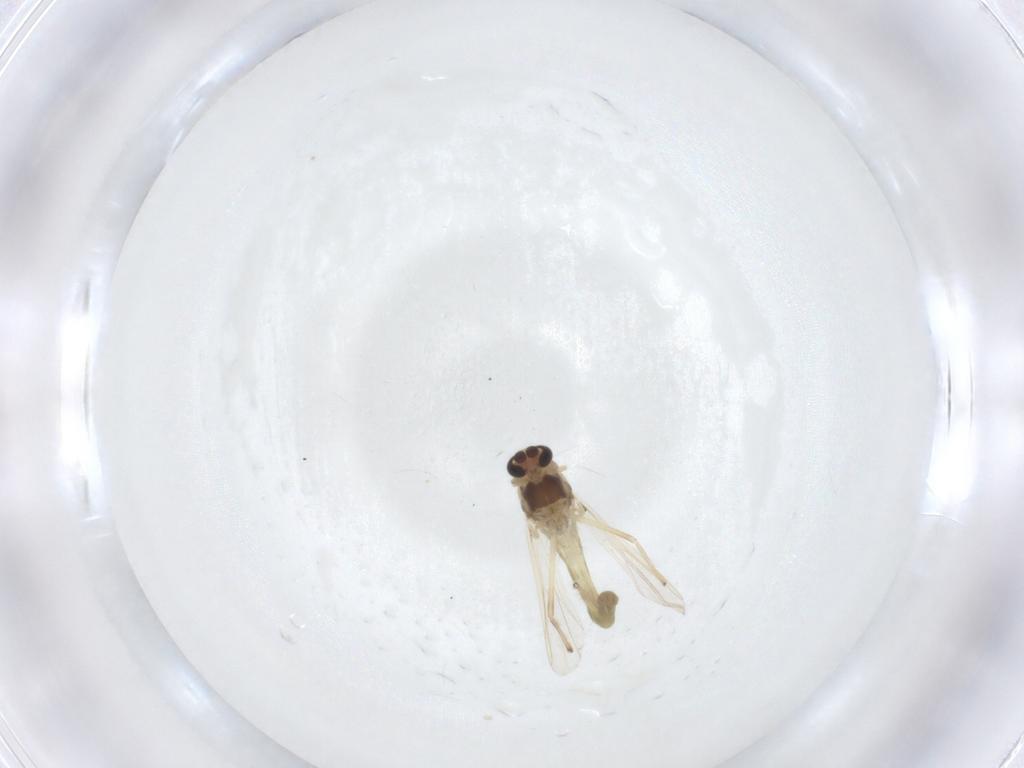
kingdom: Animalia
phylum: Arthropoda
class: Insecta
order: Diptera
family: Chironomidae
